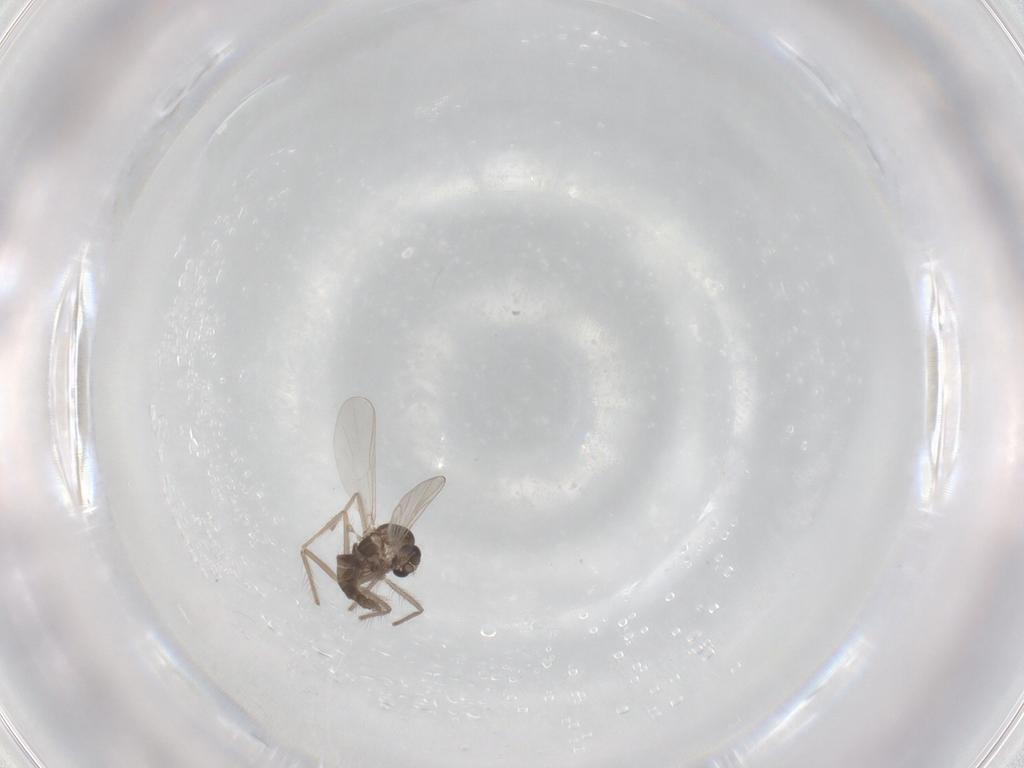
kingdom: Animalia
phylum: Arthropoda
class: Insecta
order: Diptera
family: Chironomidae
